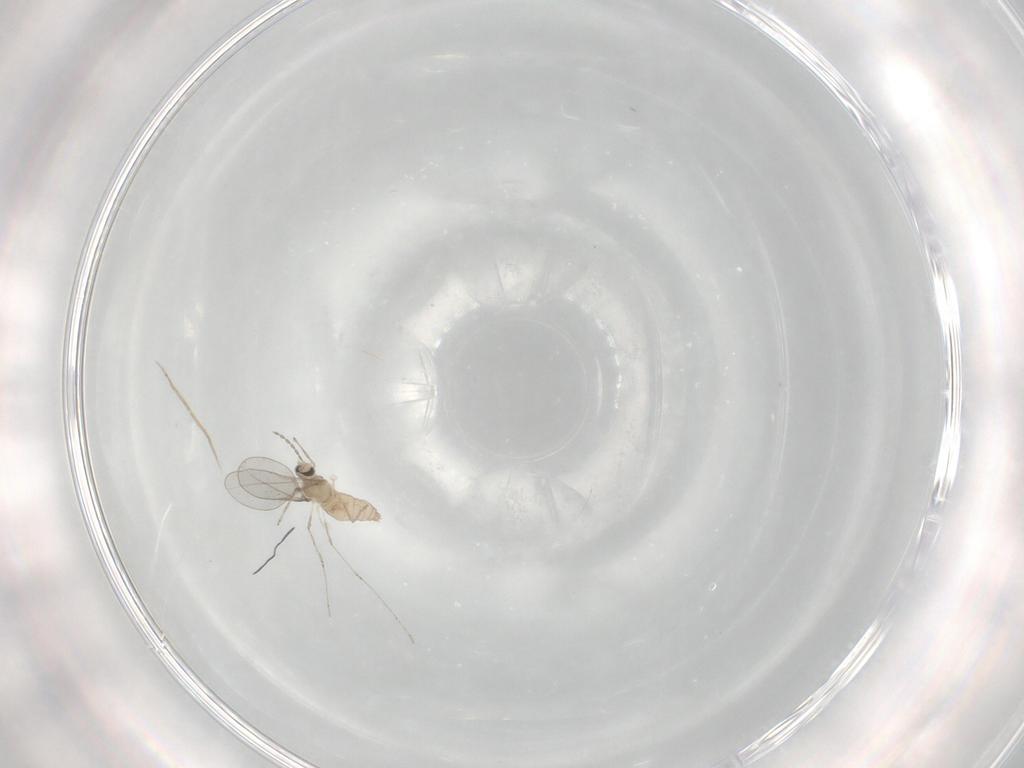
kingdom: Animalia
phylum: Arthropoda
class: Insecta
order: Diptera
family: Cecidomyiidae
